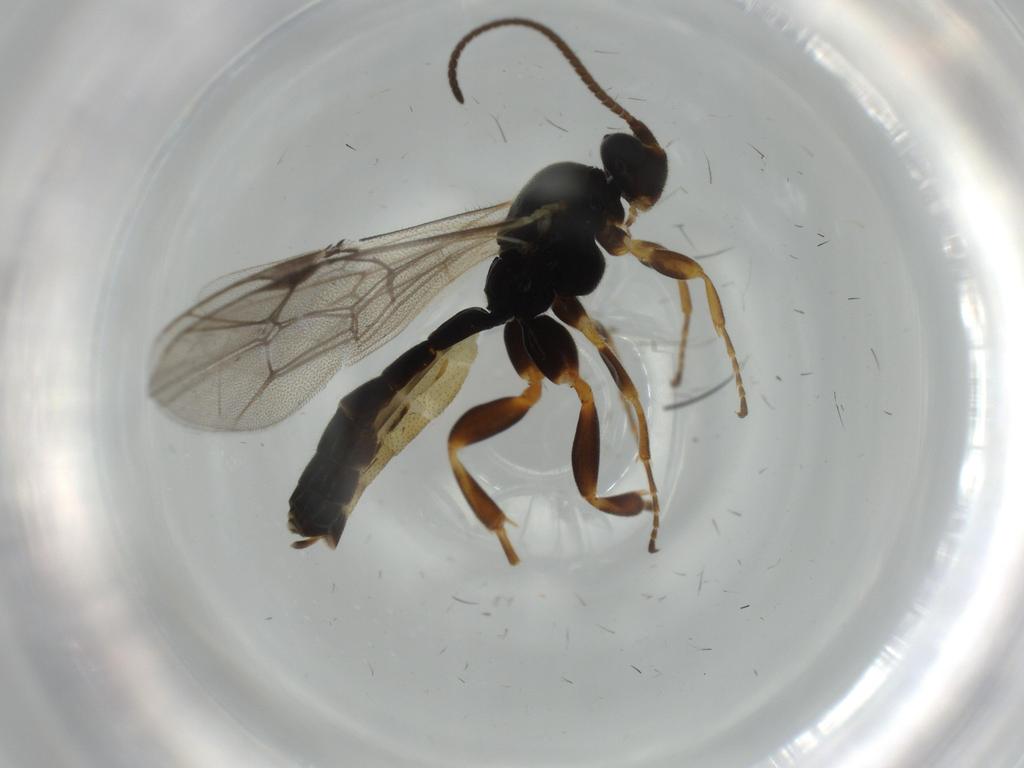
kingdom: Animalia
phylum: Arthropoda
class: Insecta
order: Hymenoptera
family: Ichneumonidae
